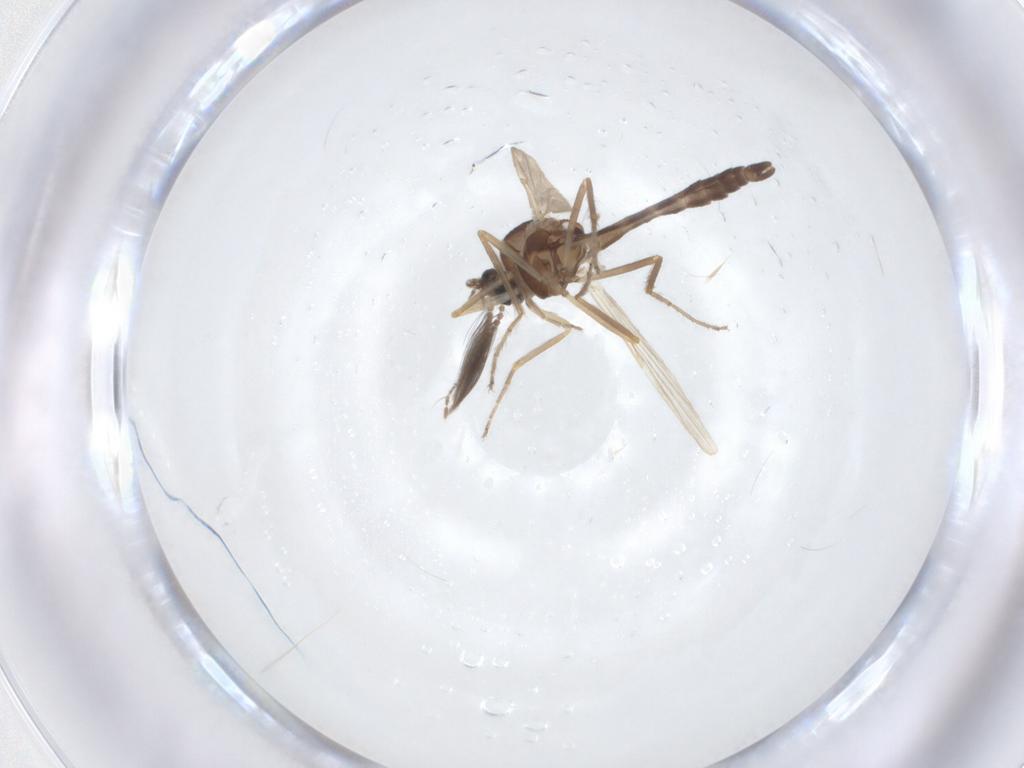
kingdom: Animalia
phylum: Arthropoda
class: Insecta
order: Diptera
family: Ceratopogonidae
